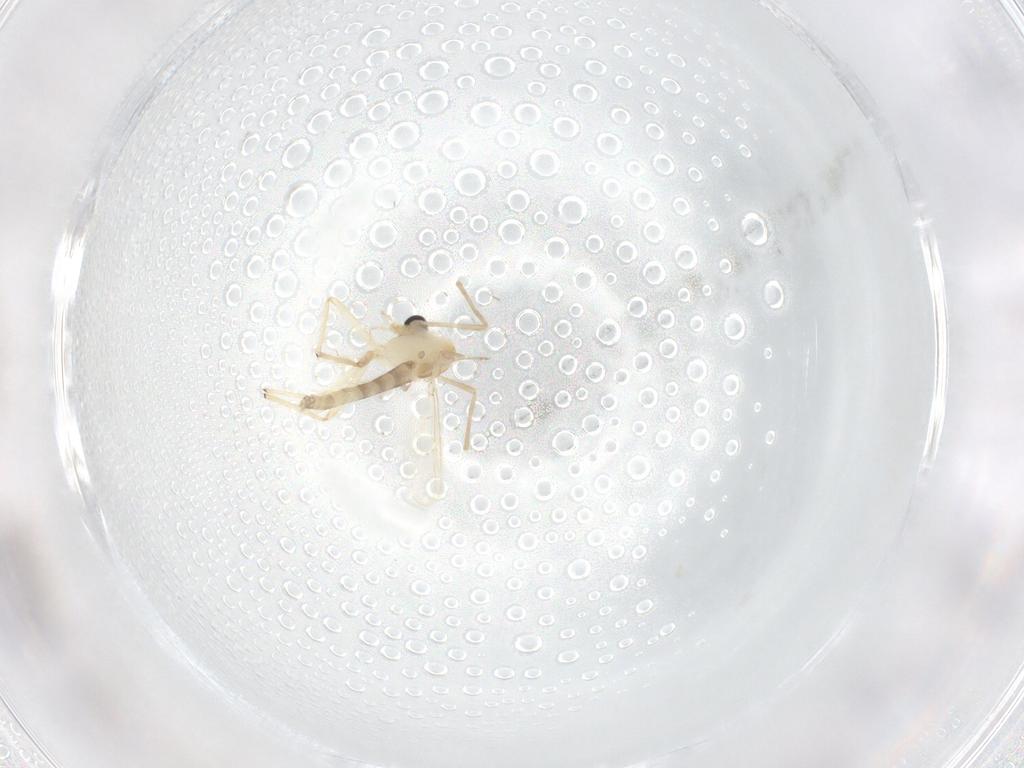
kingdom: Animalia
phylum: Arthropoda
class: Insecta
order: Diptera
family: Chironomidae
